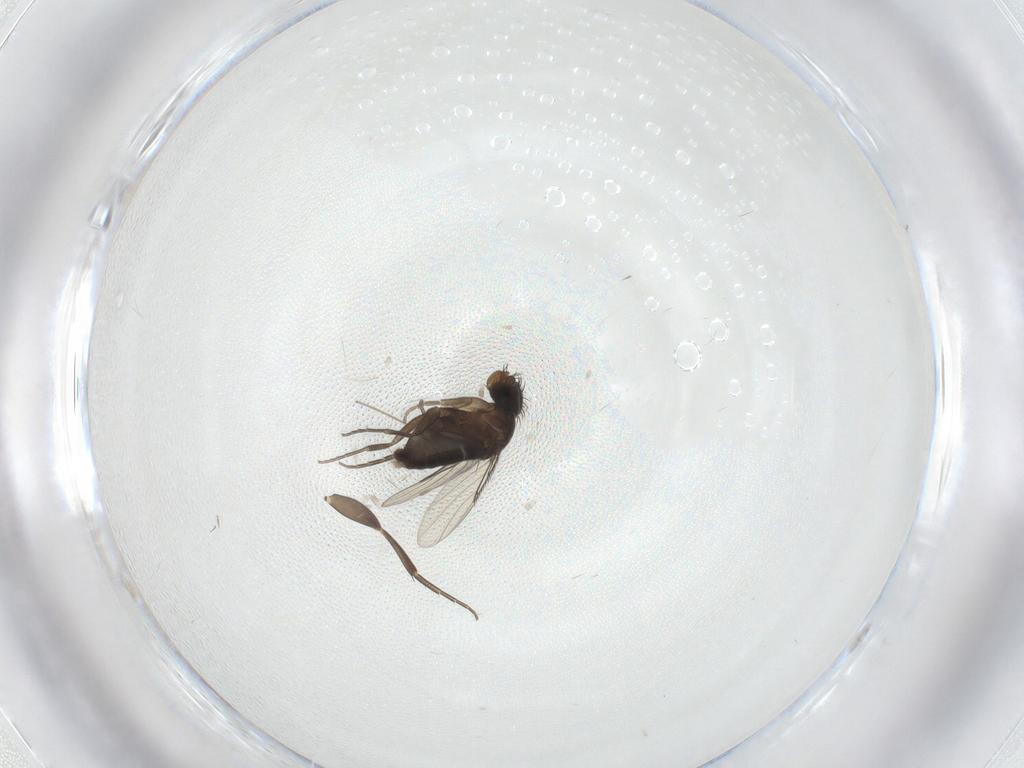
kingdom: Animalia
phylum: Arthropoda
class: Insecta
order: Diptera
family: Phoridae
